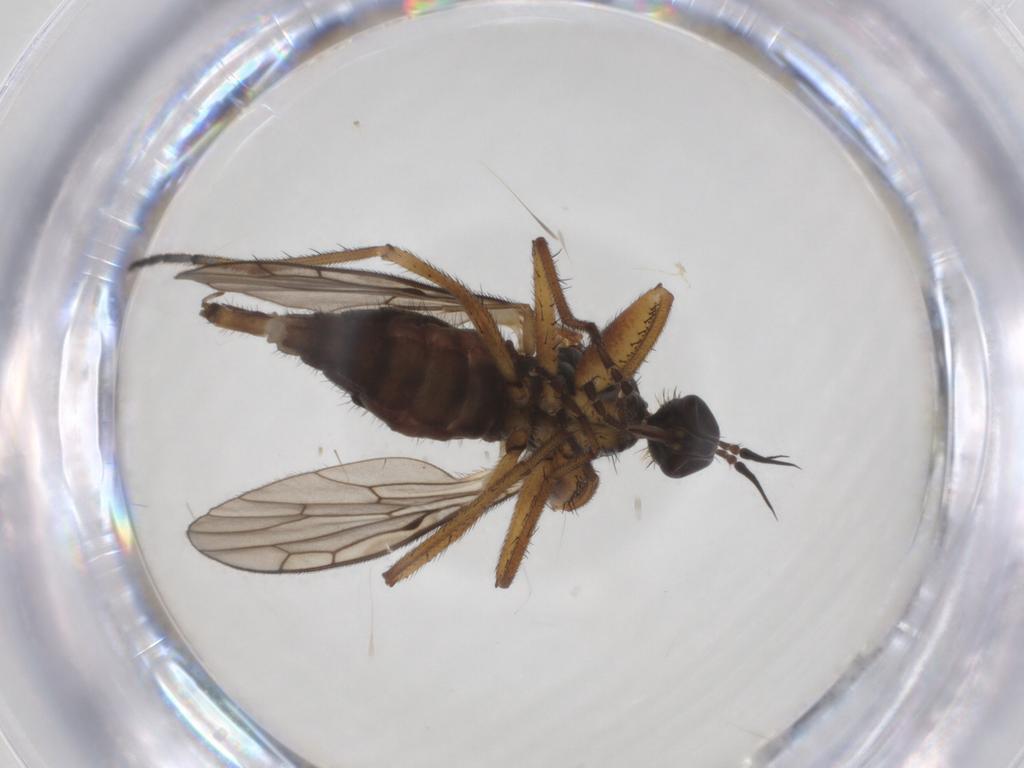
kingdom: Animalia
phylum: Arthropoda
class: Insecta
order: Diptera
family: Empididae
